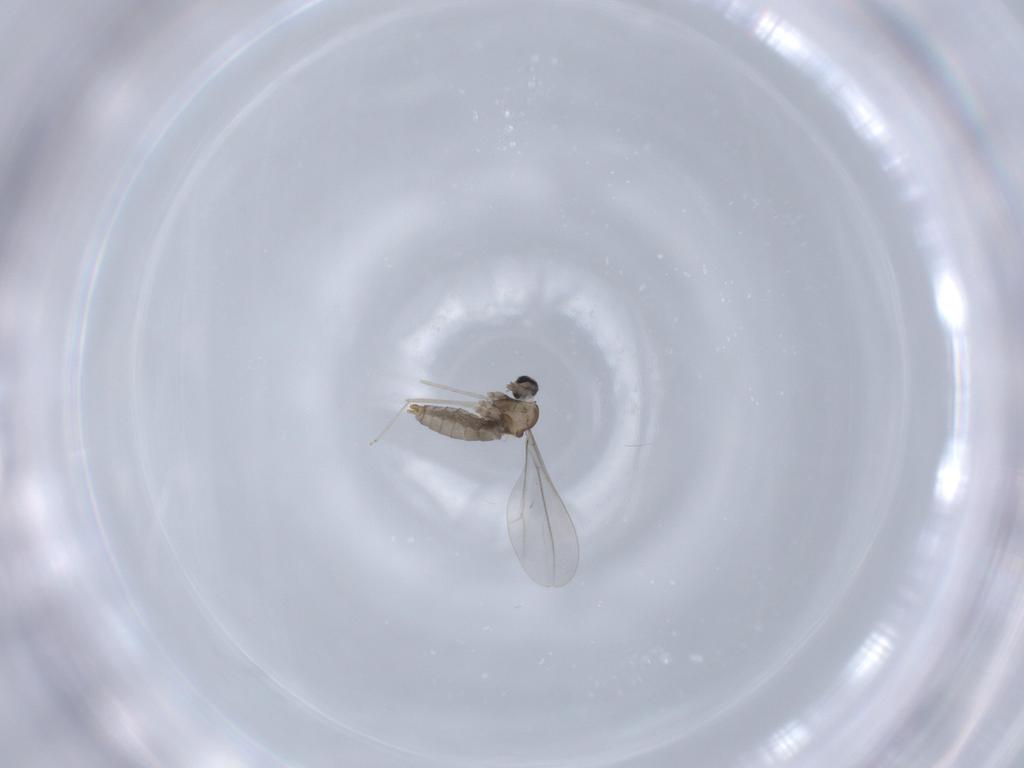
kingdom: Animalia
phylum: Arthropoda
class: Insecta
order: Diptera
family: Cecidomyiidae
